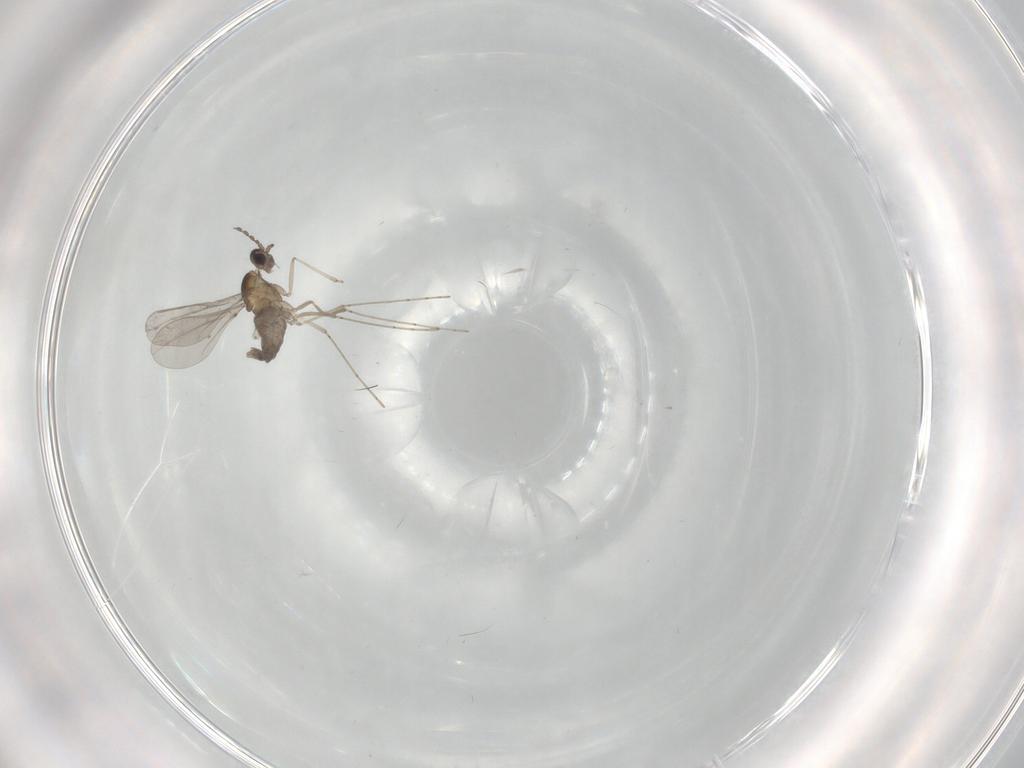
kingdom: Animalia
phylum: Arthropoda
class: Insecta
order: Diptera
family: Cecidomyiidae
